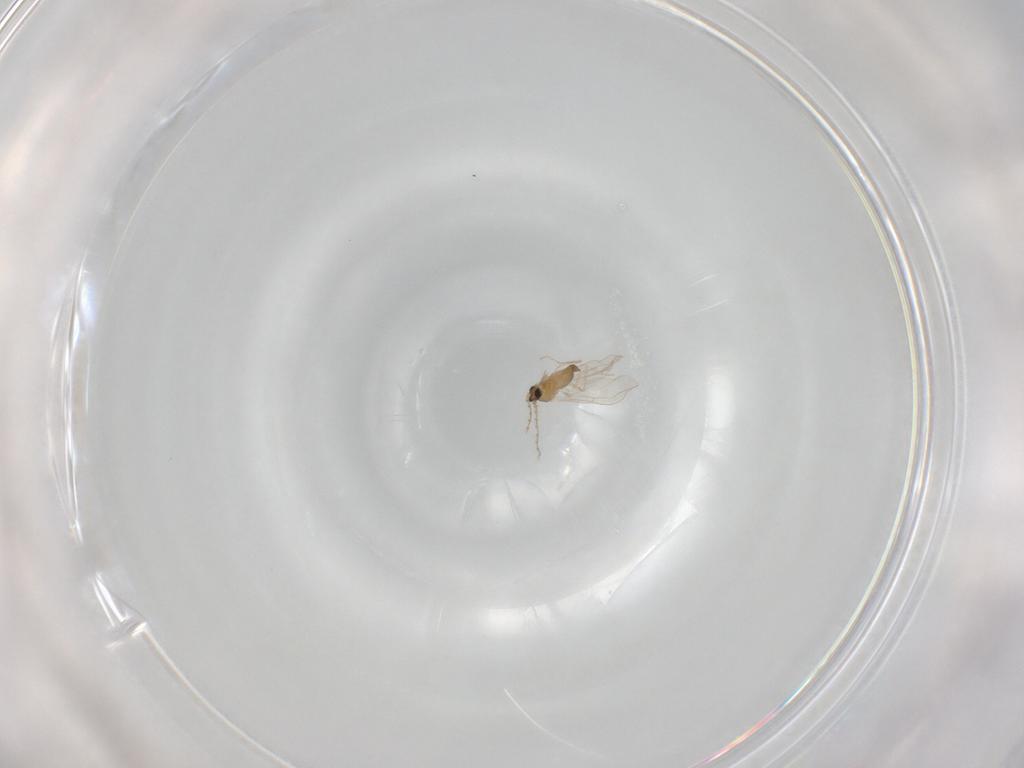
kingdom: Animalia
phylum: Arthropoda
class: Insecta
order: Diptera
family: Cecidomyiidae
